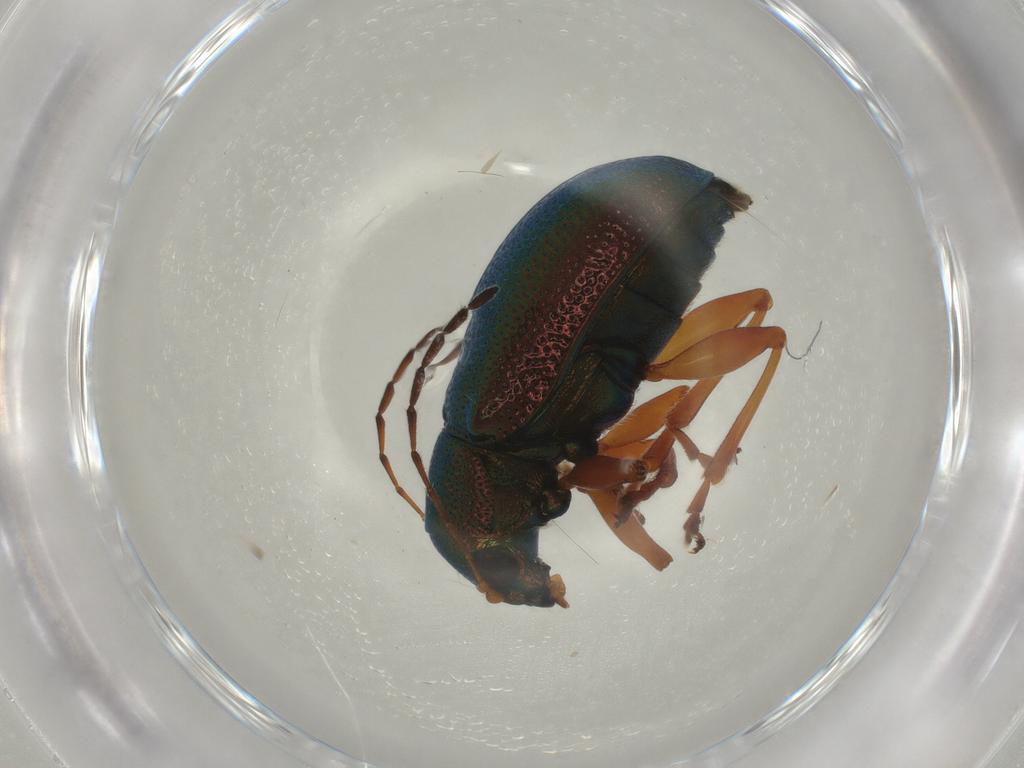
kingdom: Animalia
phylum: Arthropoda
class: Insecta
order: Coleoptera
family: Chrysomelidae
